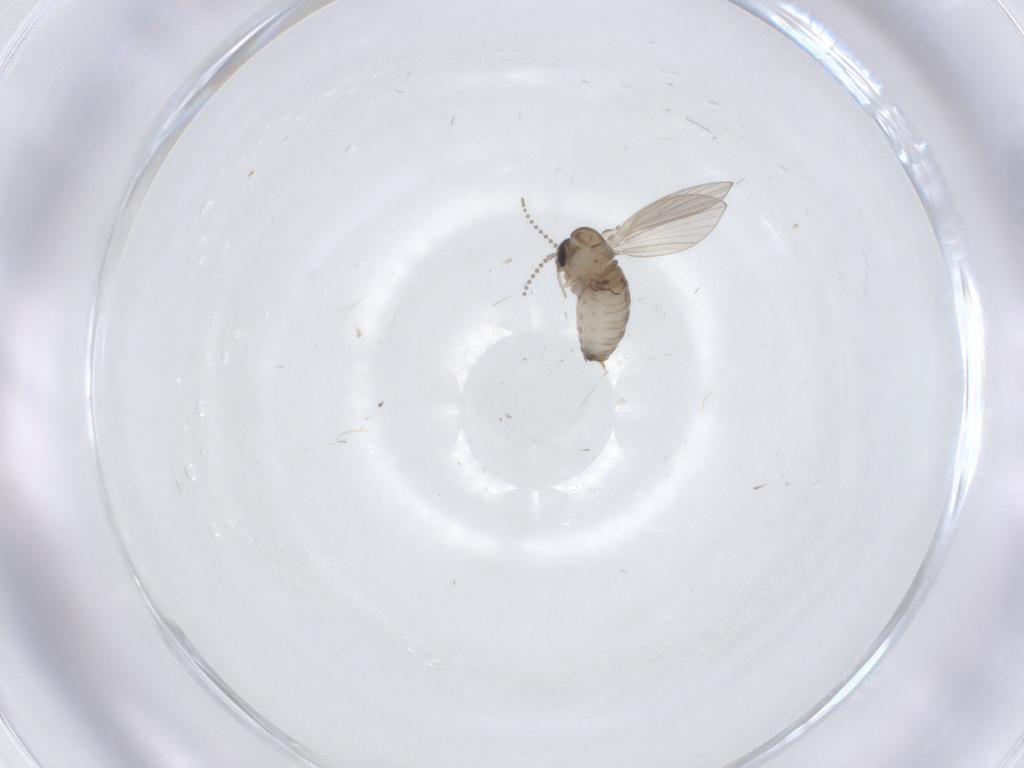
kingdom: Animalia
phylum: Arthropoda
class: Insecta
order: Diptera
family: Psychodidae
